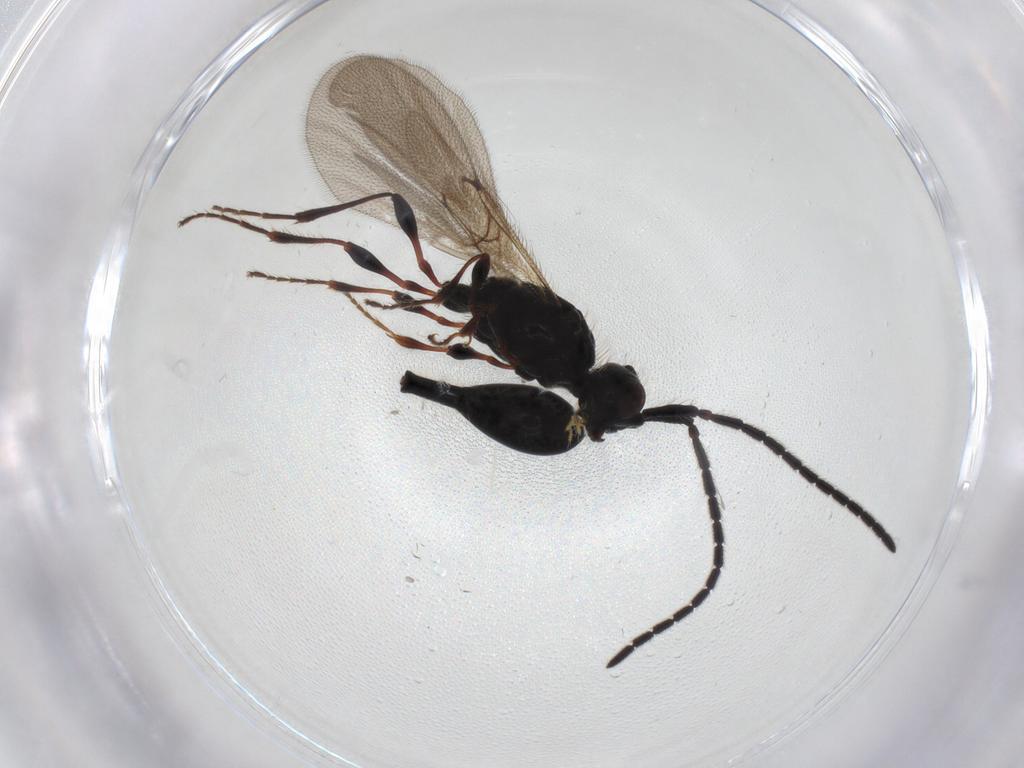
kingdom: Animalia
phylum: Arthropoda
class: Insecta
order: Hymenoptera
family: Diapriidae
